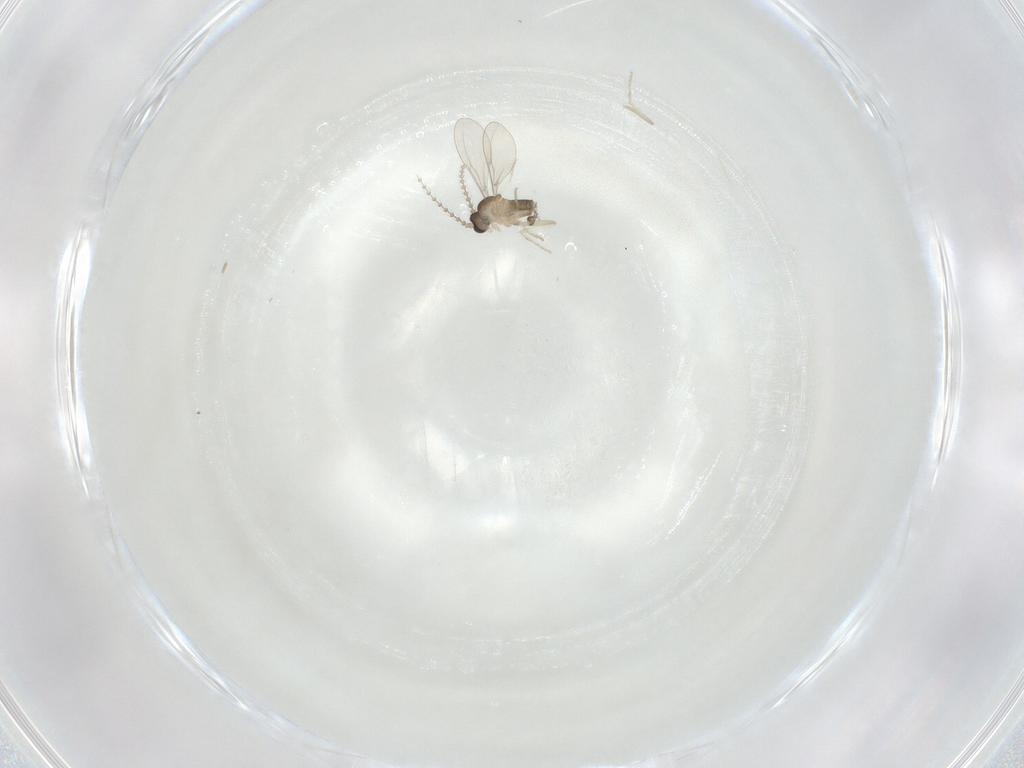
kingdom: Animalia
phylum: Arthropoda
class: Insecta
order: Diptera
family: Cecidomyiidae
